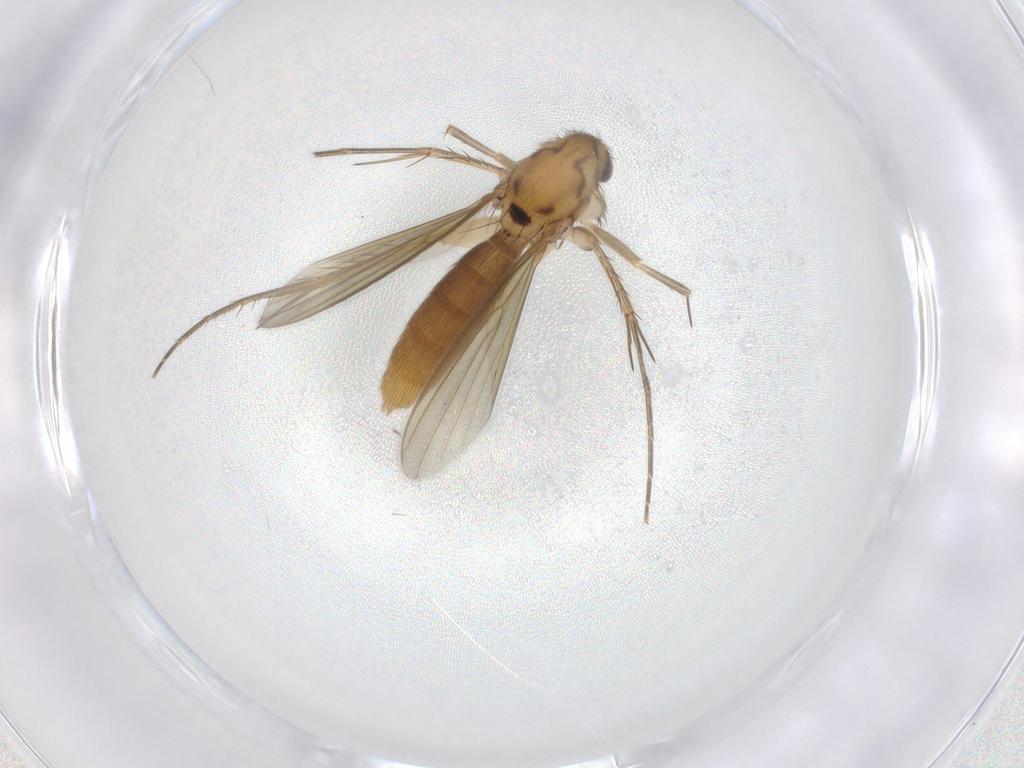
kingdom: Animalia
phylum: Arthropoda
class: Insecta
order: Diptera
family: Mycetophilidae
